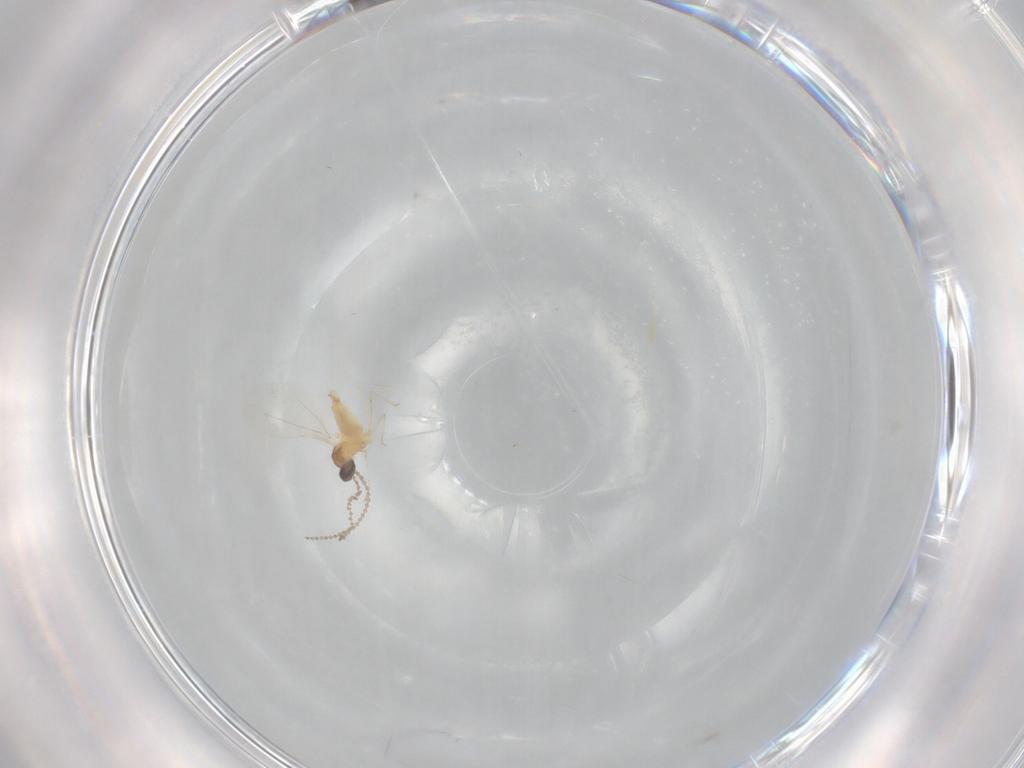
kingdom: Animalia
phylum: Arthropoda
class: Insecta
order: Diptera
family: Cecidomyiidae
